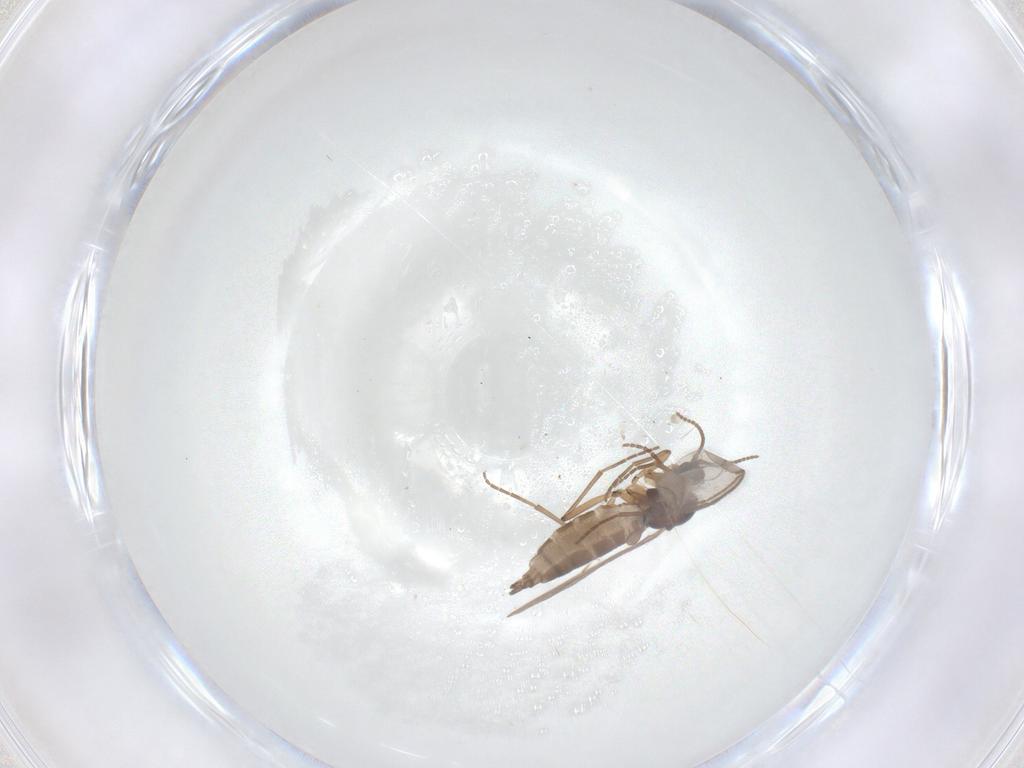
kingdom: Animalia
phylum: Arthropoda
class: Insecta
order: Diptera
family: Sciaridae
